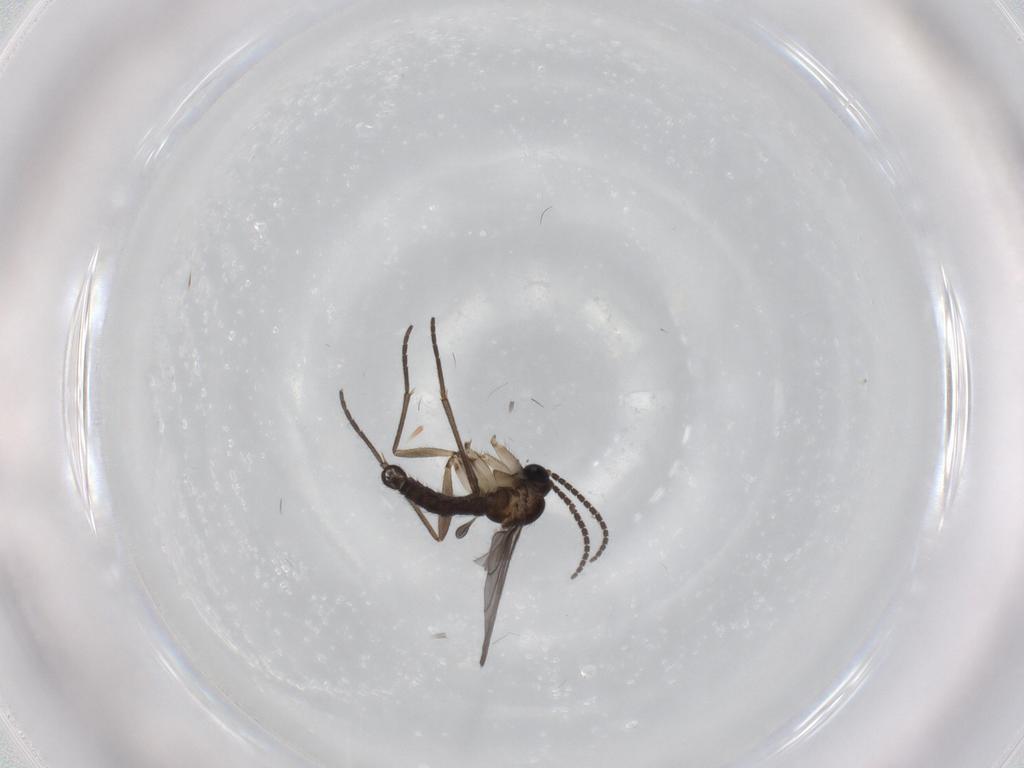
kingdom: Animalia
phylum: Arthropoda
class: Insecta
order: Diptera
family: Sciaridae
